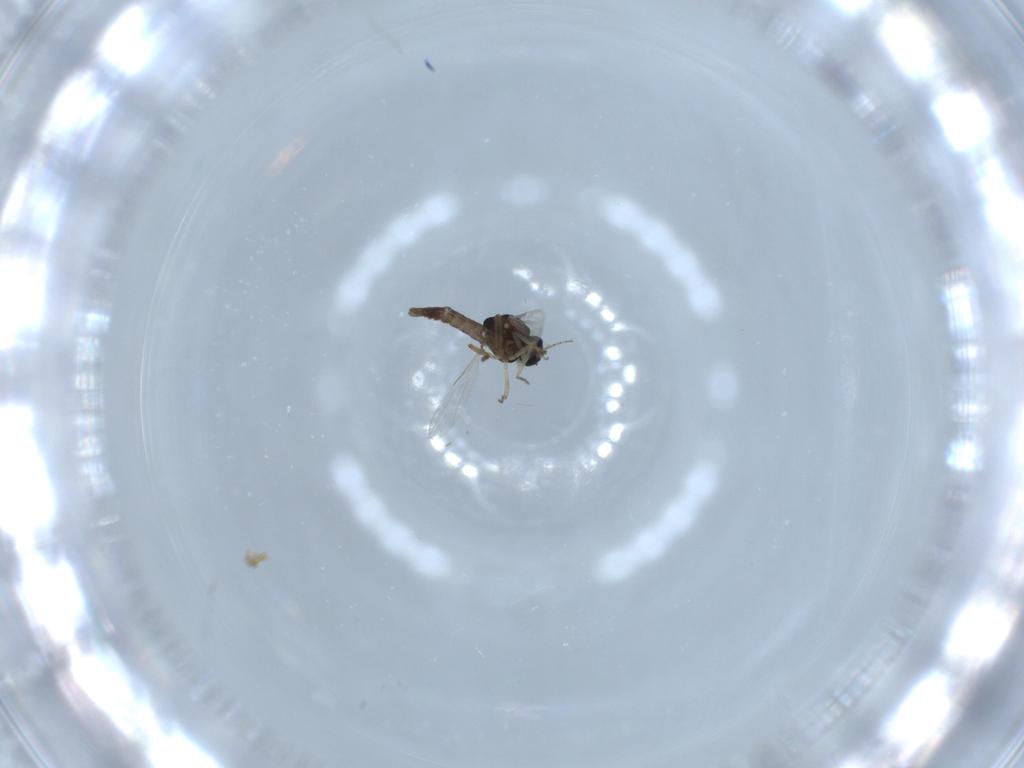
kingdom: Animalia
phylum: Arthropoda
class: Insecta
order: Diptera
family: Ceratopogonidae
